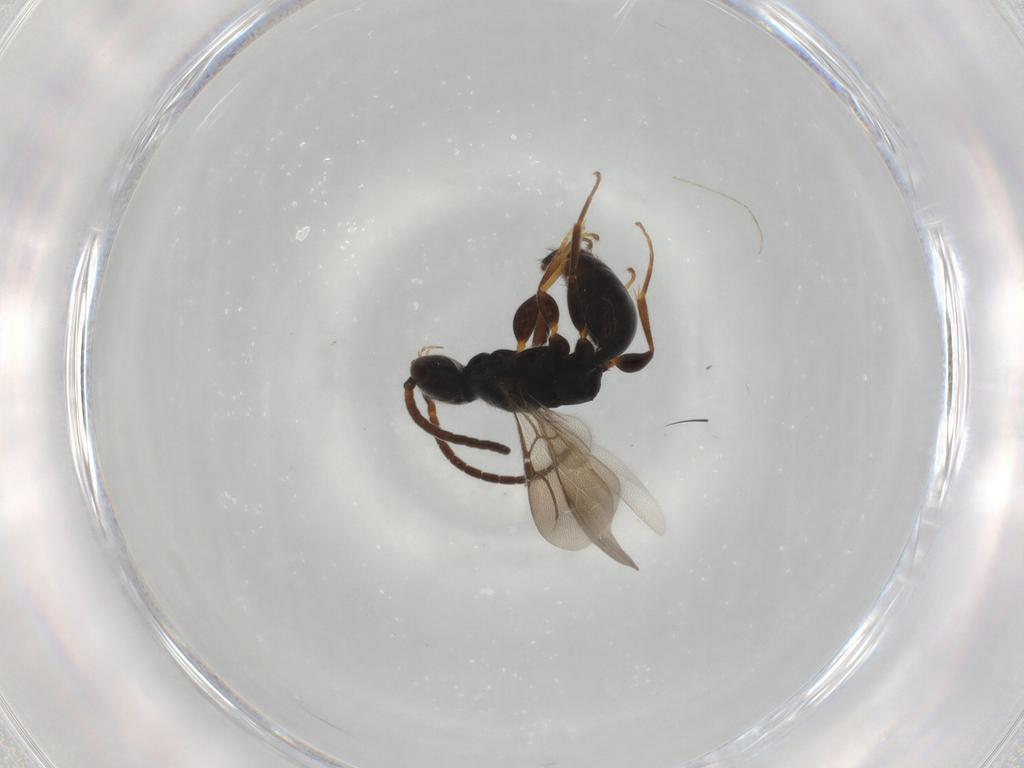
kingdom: Animalia
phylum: Arthropoda
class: Insecta
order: Hymenoptera
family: Bethylidae
